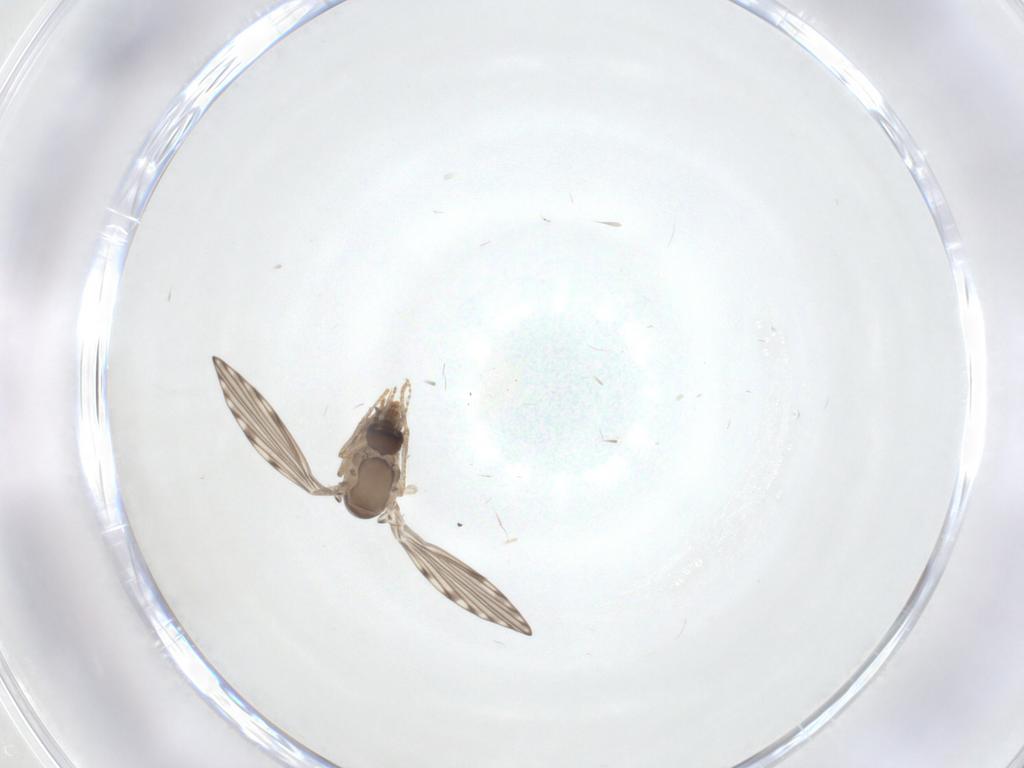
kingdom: Animalia
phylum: Arthropoda
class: Insecta
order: Diptera
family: Psychodidae
